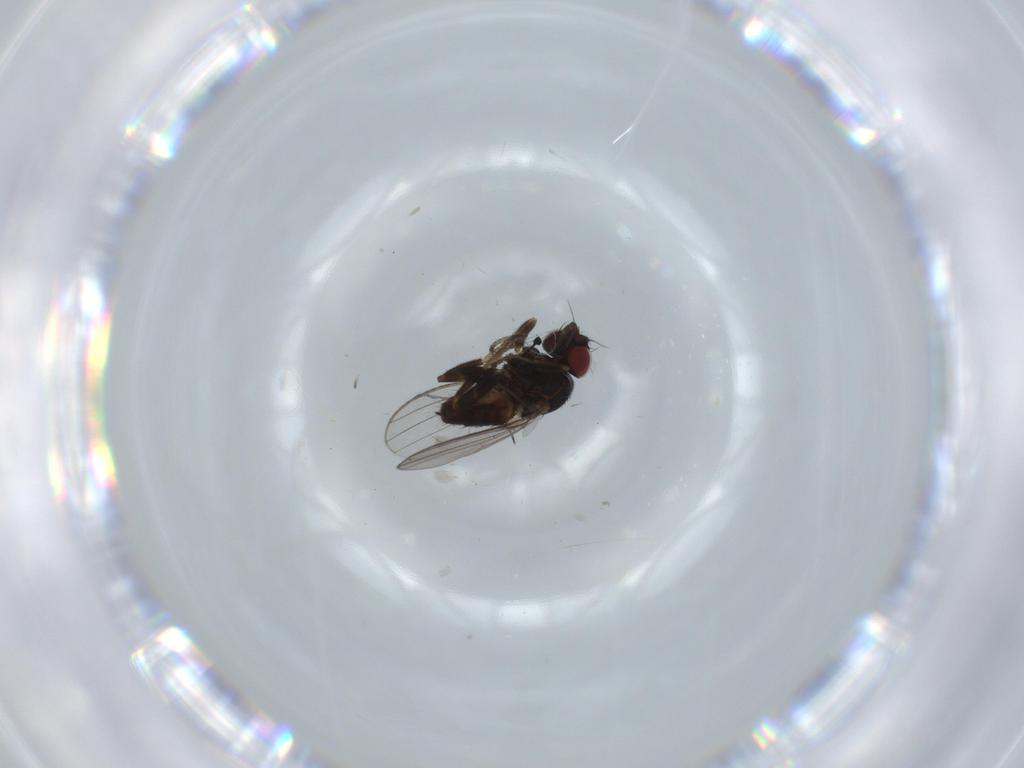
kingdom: Animalia
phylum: Arthropoda
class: Insecta
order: Diptera
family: Milichiidae
